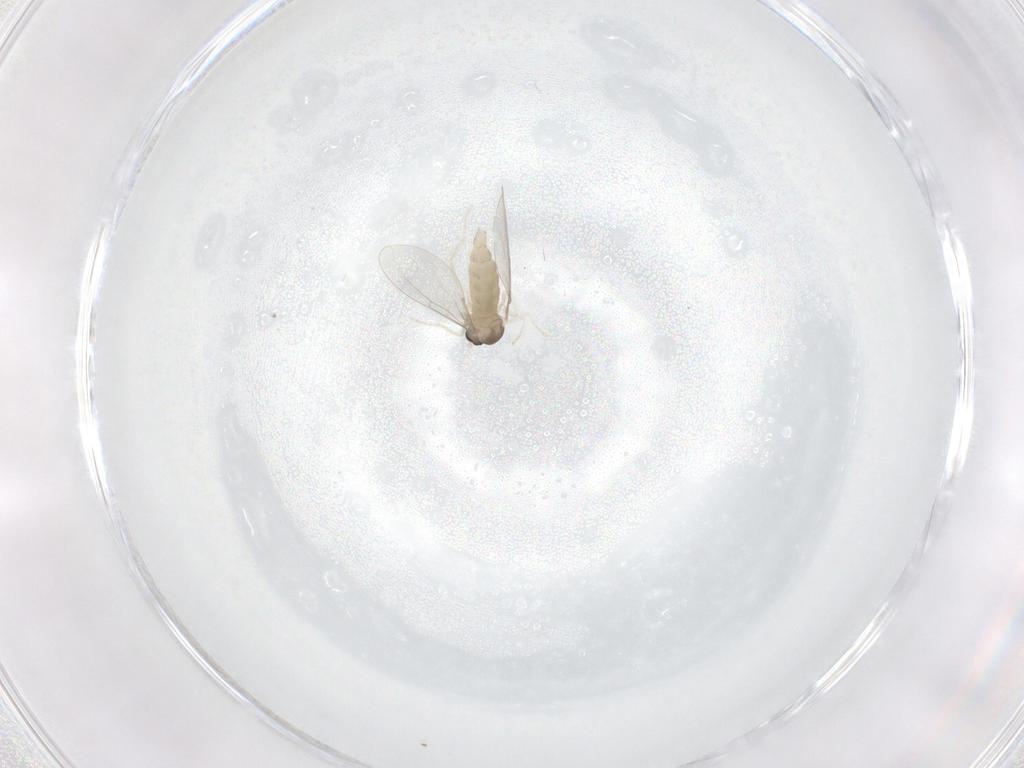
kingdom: Animalia
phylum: Arthropoda
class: Insecta
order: Diptera
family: Cecidomyiidae
